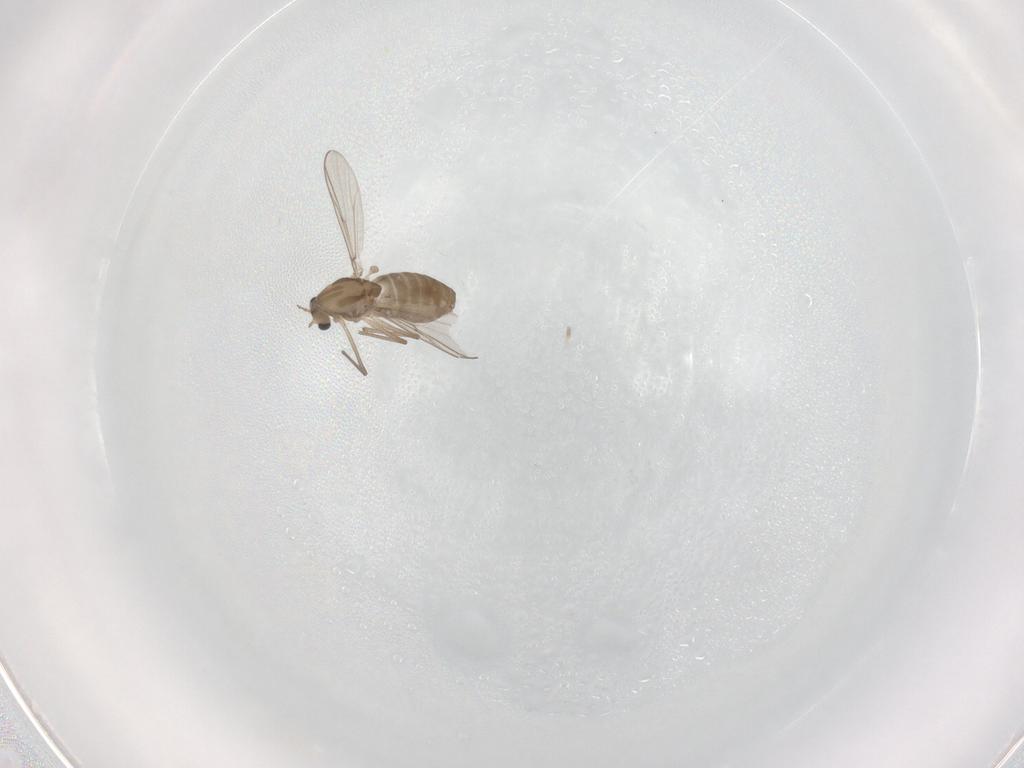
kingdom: Animalia
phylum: Arthropoda
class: Insecta
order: Diptera
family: Chironomidae
